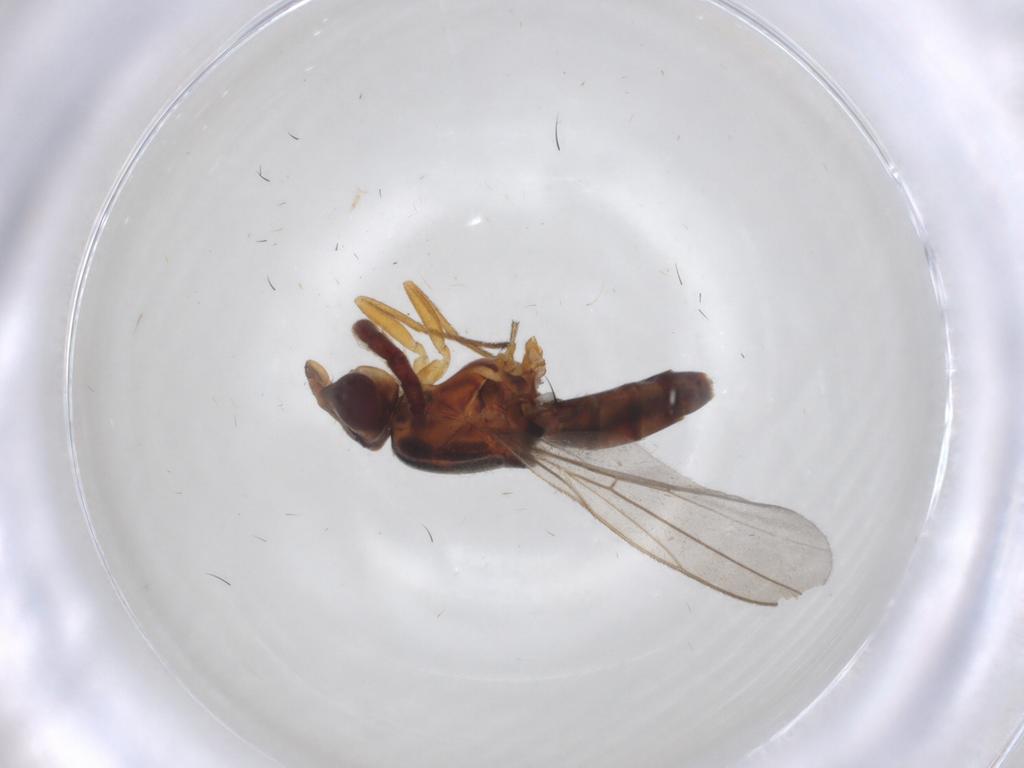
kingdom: Animalia
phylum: Arthropoda
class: Insecta
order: Diptera
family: Chloropidae
